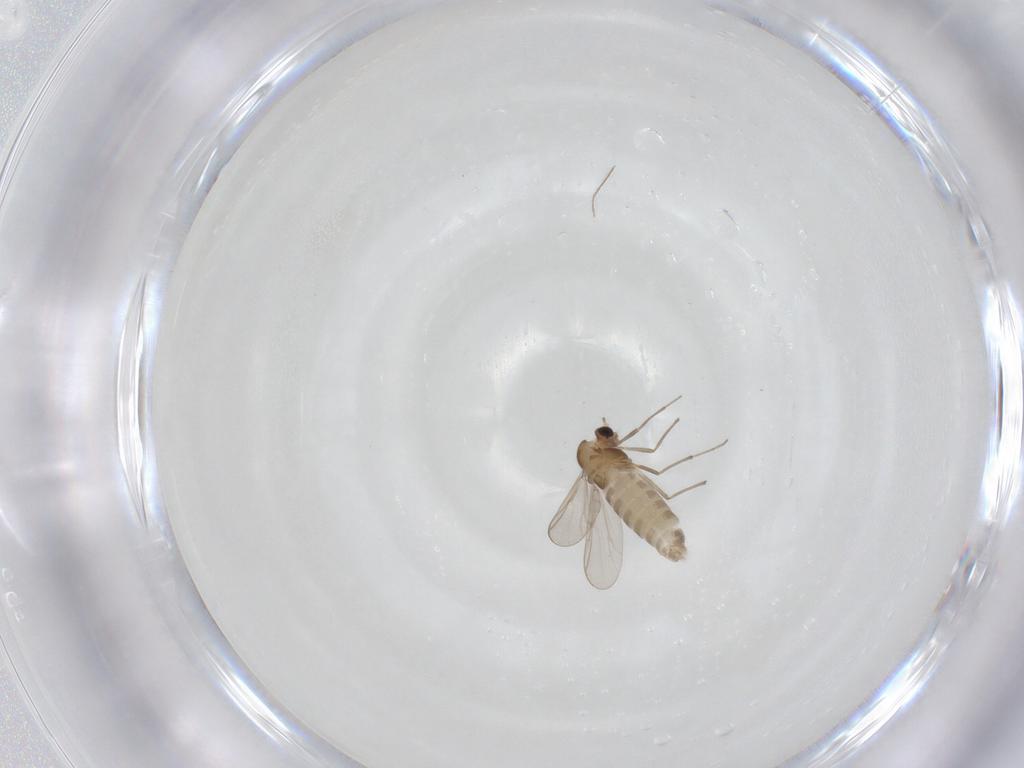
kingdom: Animalia
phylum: Arthropoda
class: Insecta
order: Diptera
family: Chironomidae
